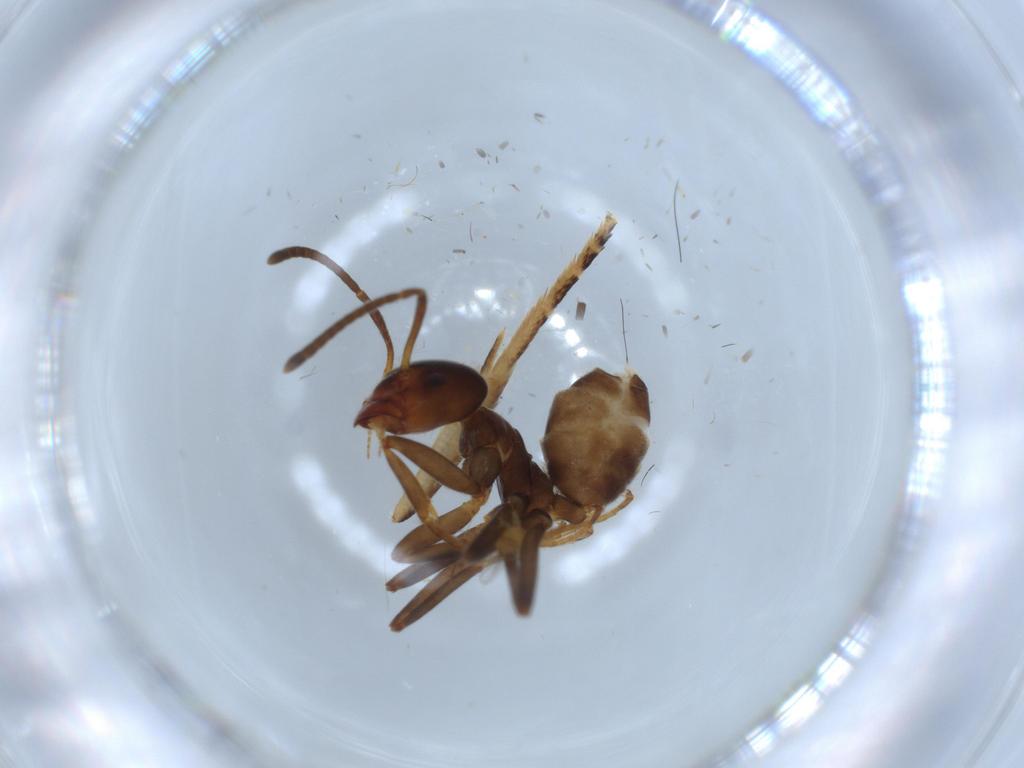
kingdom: Animalia
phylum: Arthropoda
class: Insecta
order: Hymenoptera
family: Formicidae
